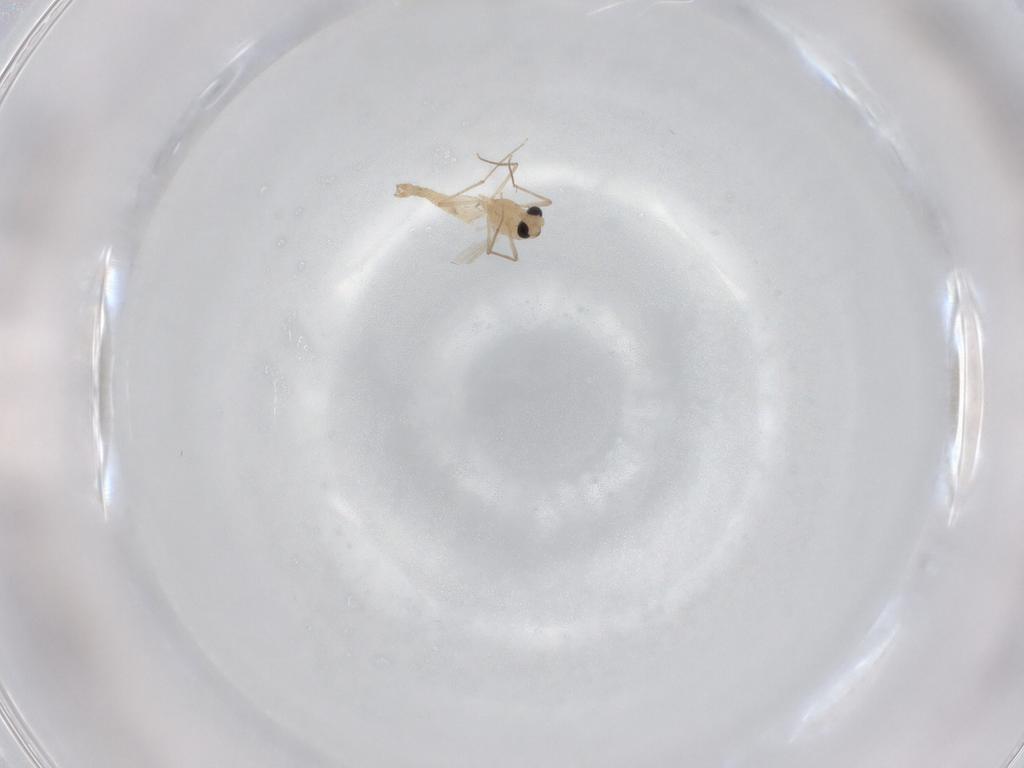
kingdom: Animalia
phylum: Arthropoda
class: Insecta
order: Diptera
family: Chironomidae
